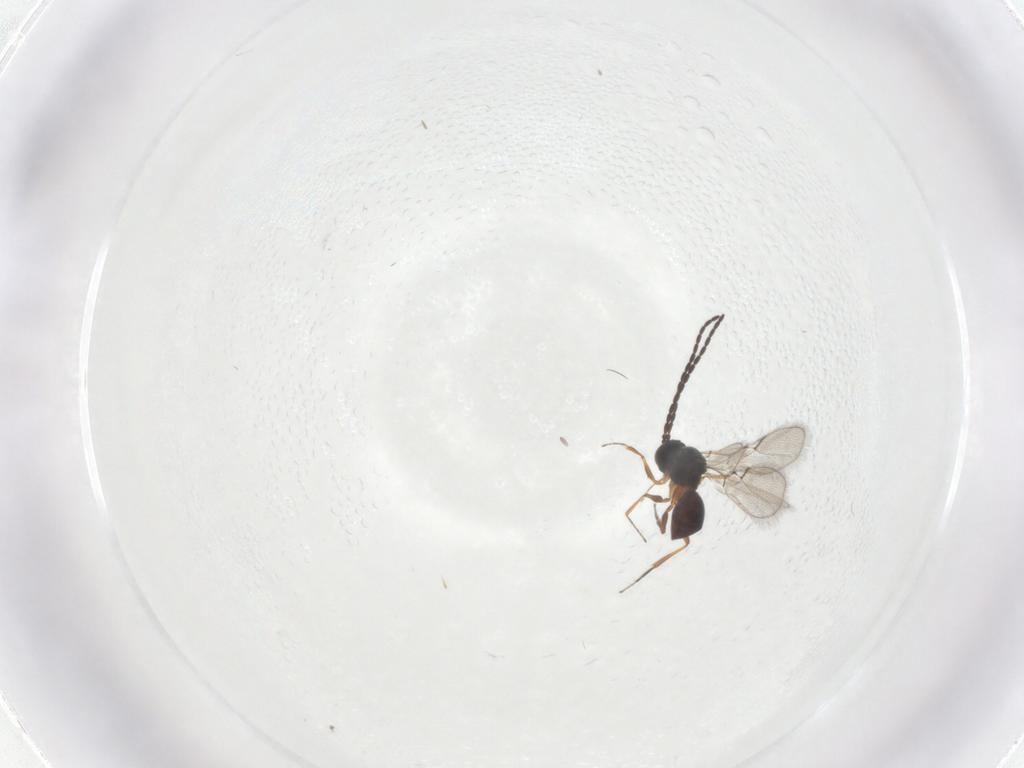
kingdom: Animalia
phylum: Arthropoda
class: Insecta
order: Hymenoptera
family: Figitidae
